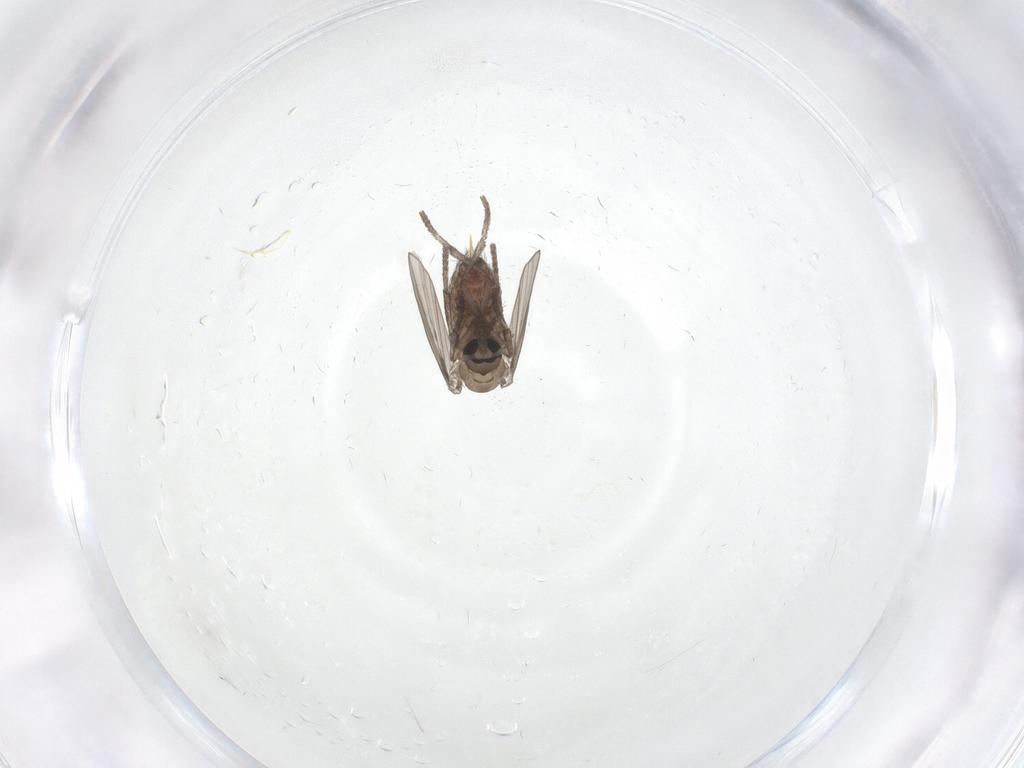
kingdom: Animalia
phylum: Arthropoda
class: Insecta
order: Diptera
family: Psychodidae
